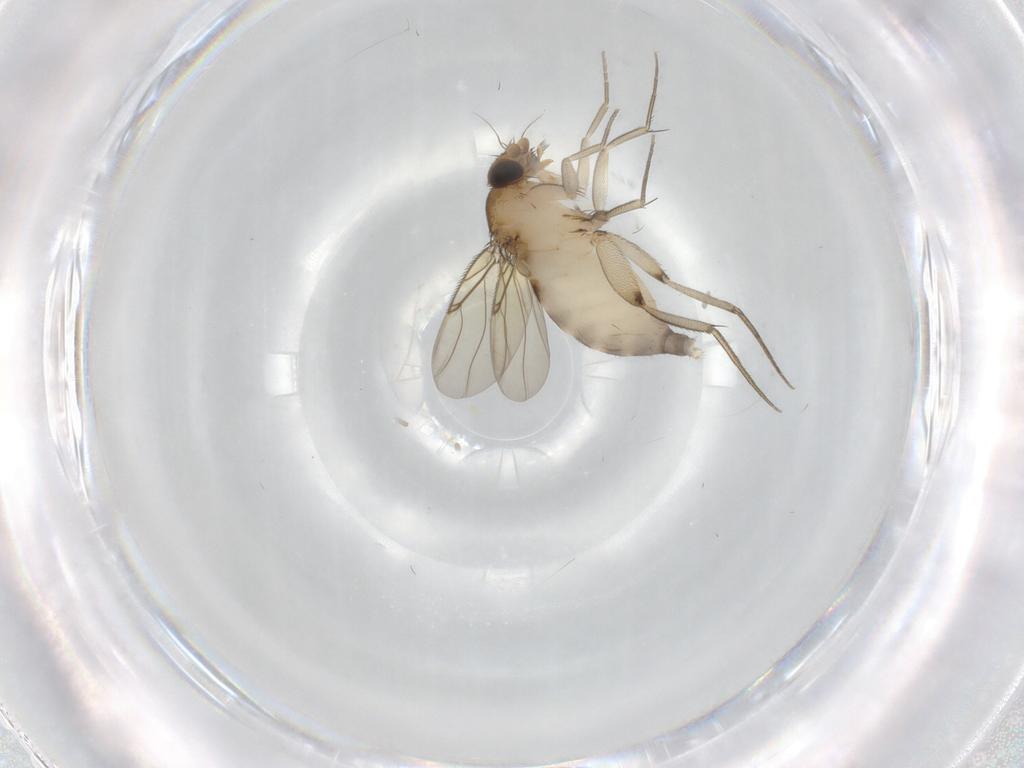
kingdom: Animalia
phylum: Arthropoda
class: Insecta
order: Diptera
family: Phoridae
